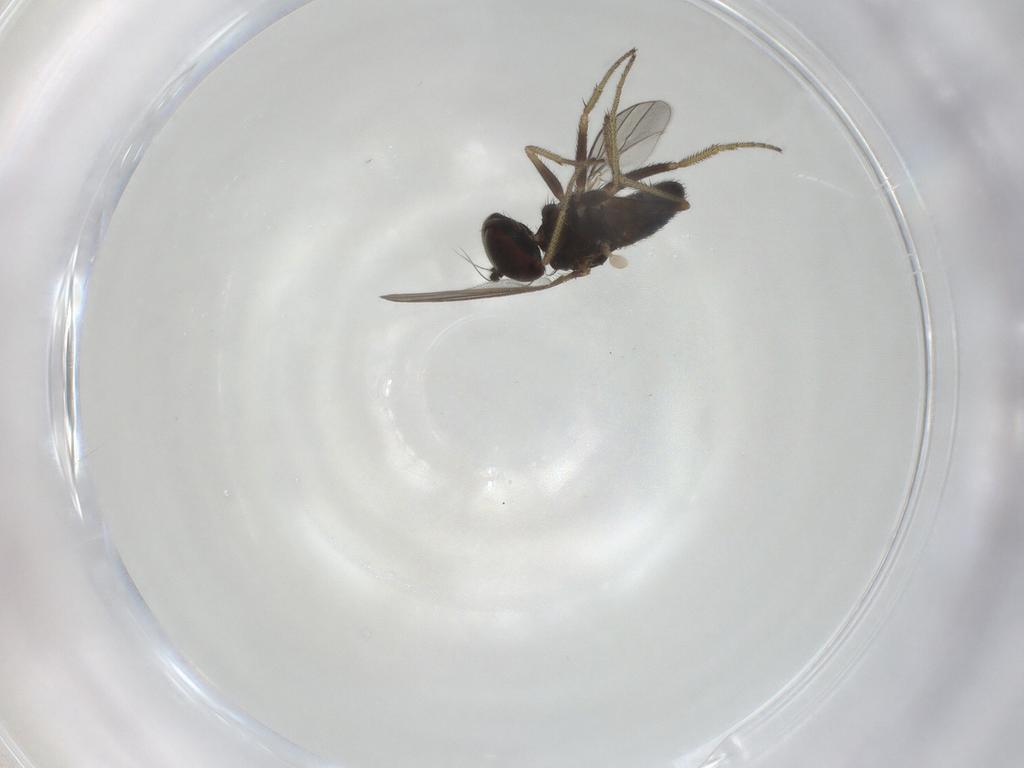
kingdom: Animalia
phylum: Arthropoda
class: Insecta
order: Diptera
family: Dolichopodidae
